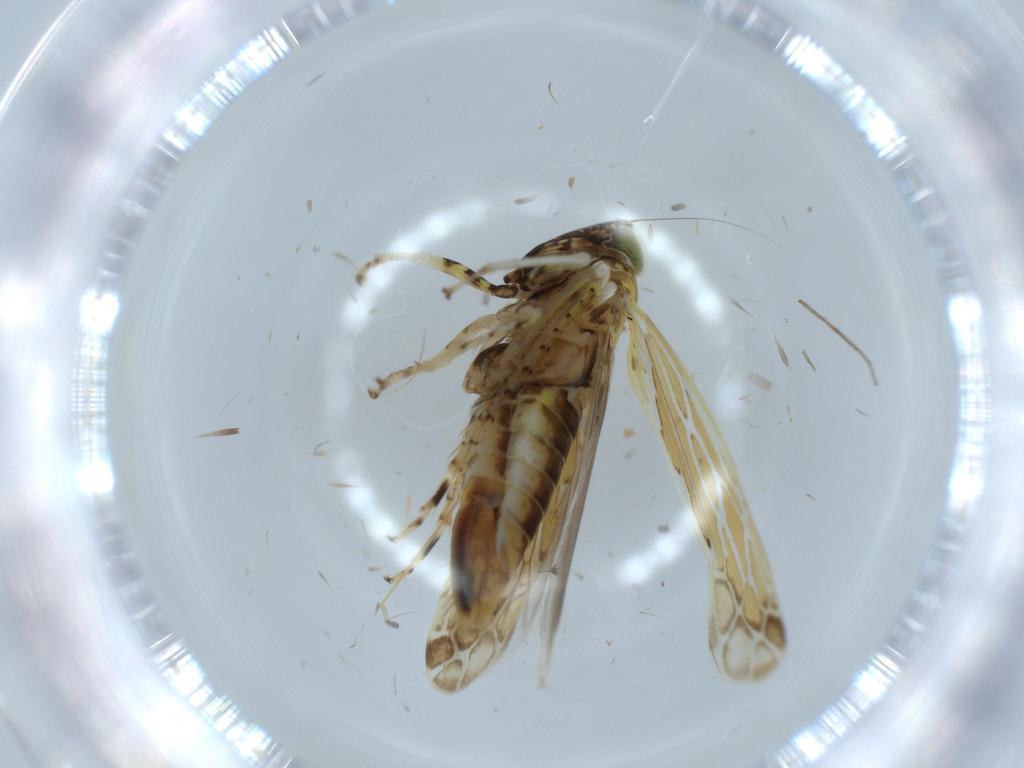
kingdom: Animalia
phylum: Arthropoda
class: Insecta
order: Hemiptera
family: Cicadellidae
